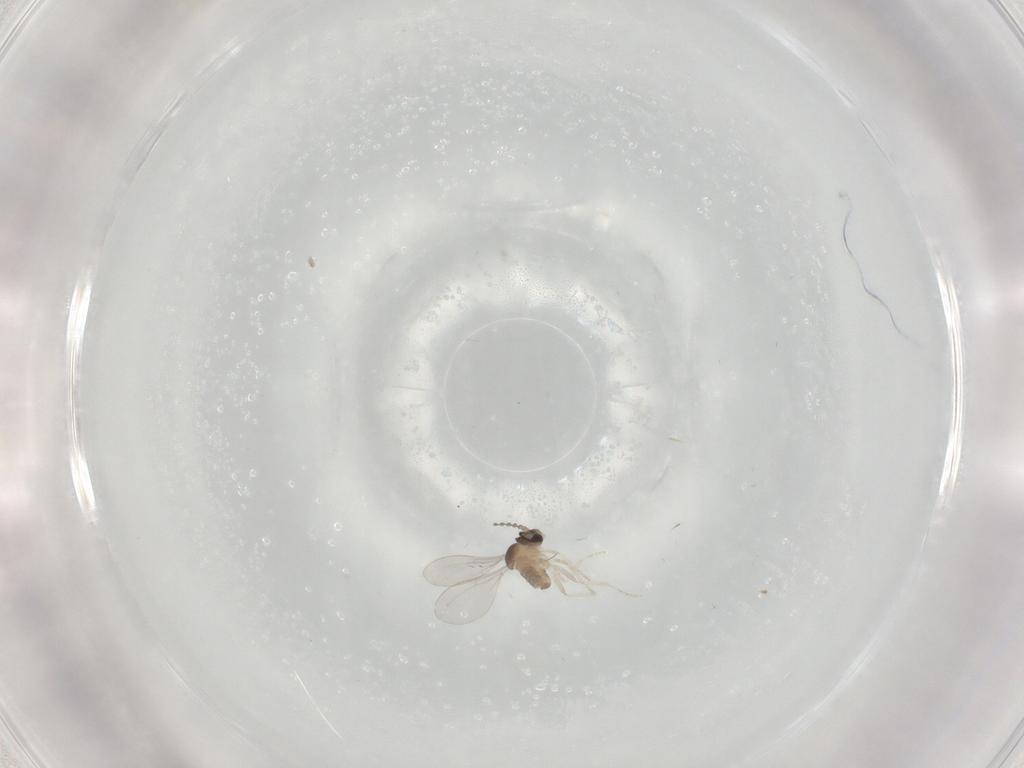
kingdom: Animalia
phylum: Arthropoda
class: Insecta
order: Diptera
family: Cecidomyiidae
